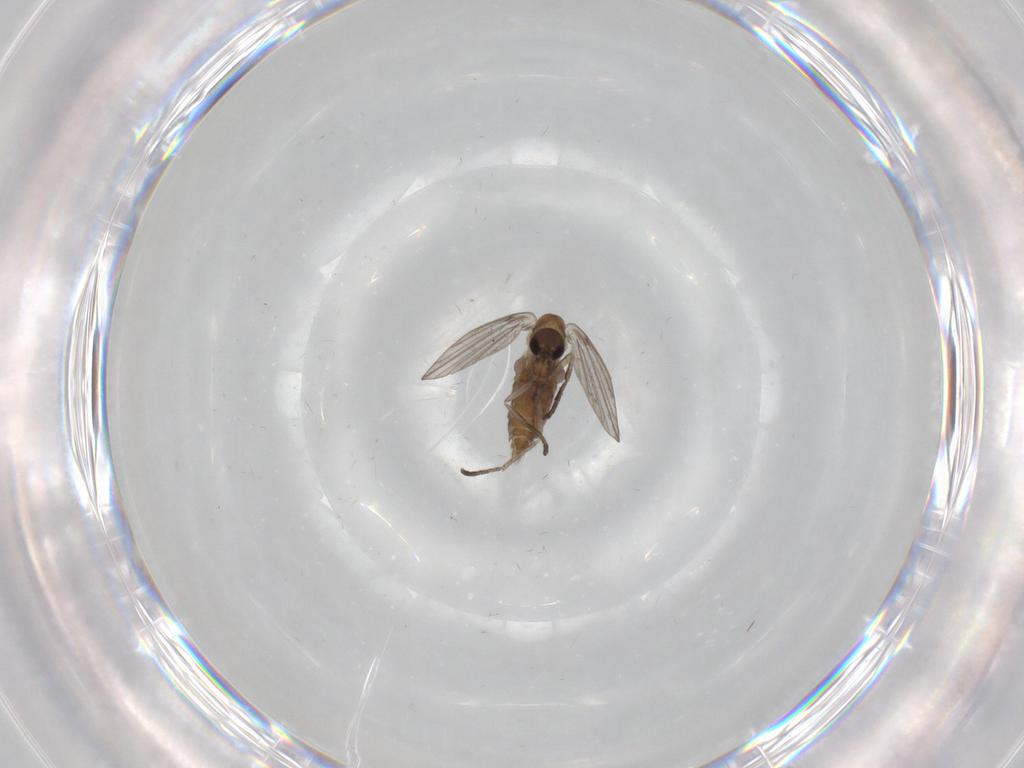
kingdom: Animalia
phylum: Arthropoda
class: Insecta
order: Diptera
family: Psychodidae
